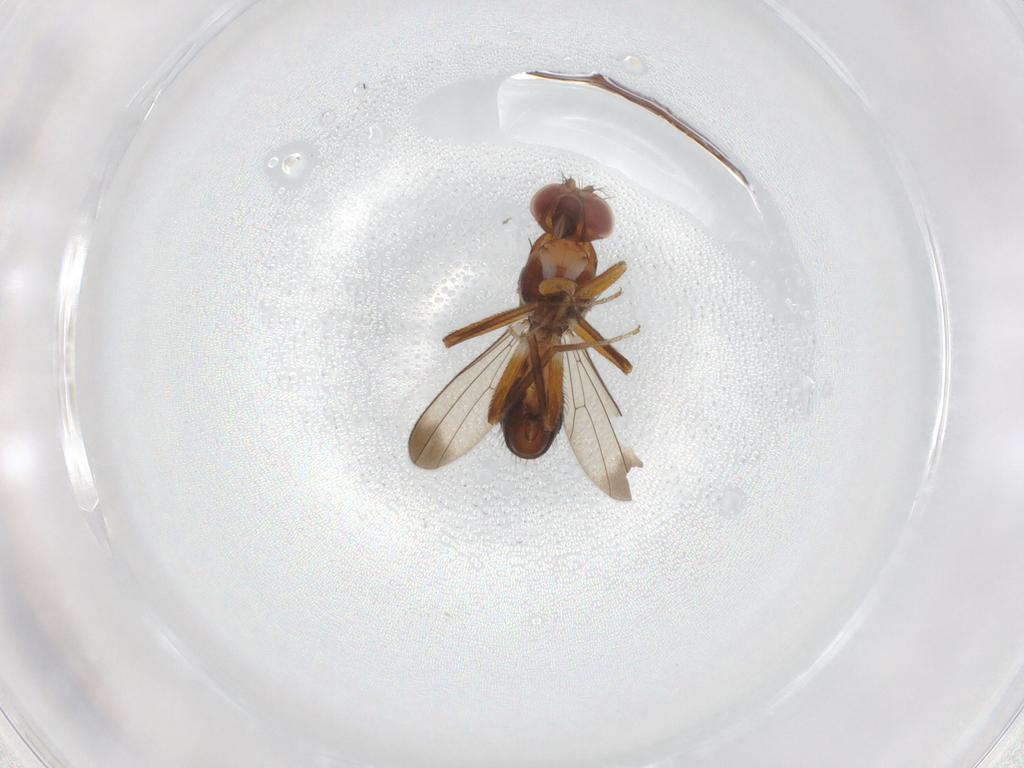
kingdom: Animalia
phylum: Arthropoda
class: Insecta
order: Diptera
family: Drosophilidae
